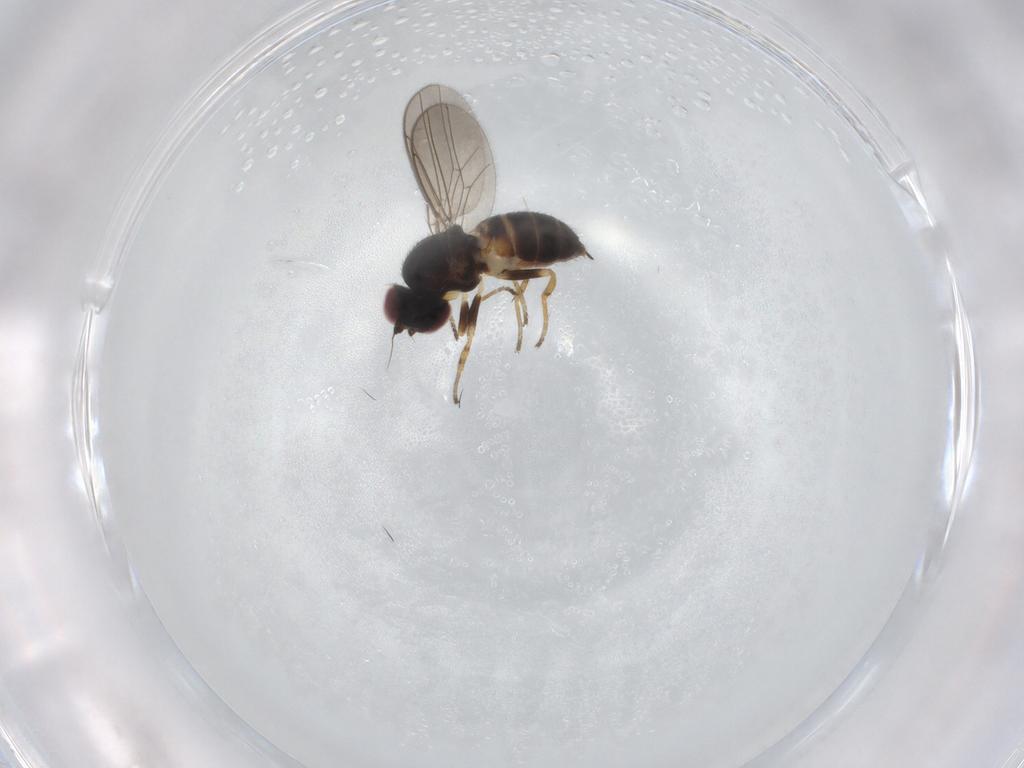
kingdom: Animalia
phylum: Arthropoda
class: Insecta
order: Diptera
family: Chloropidae
